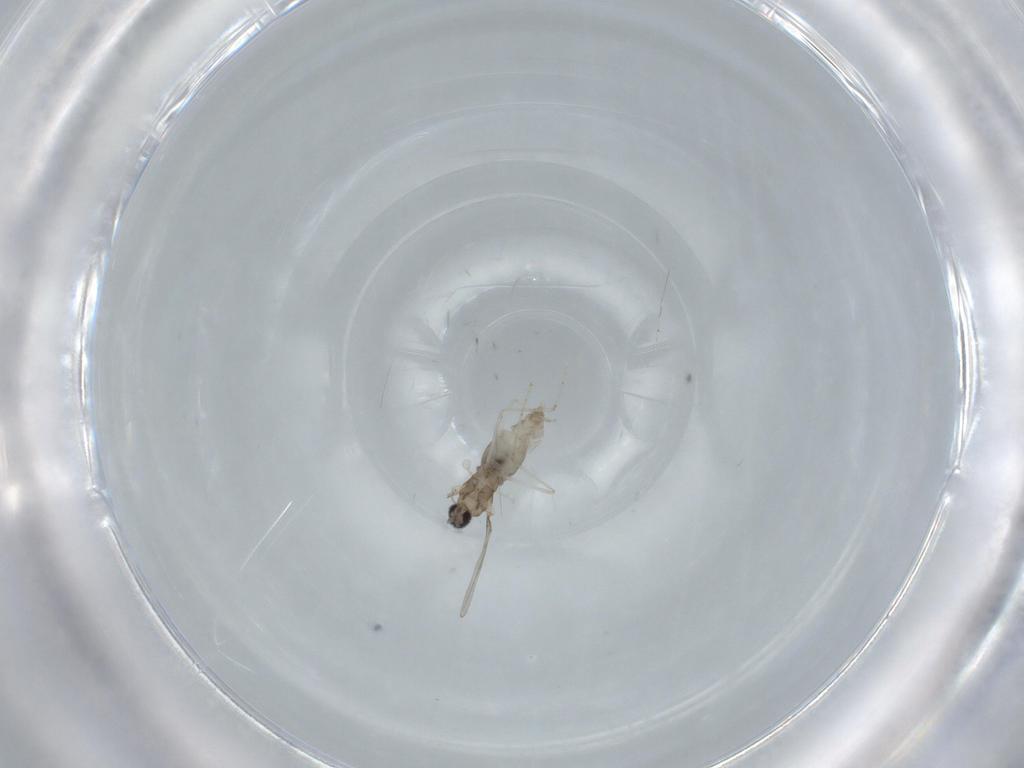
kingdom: Animalia
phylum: Arthropoda
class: Insecta
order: Diptera
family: Cecidomyiidae
